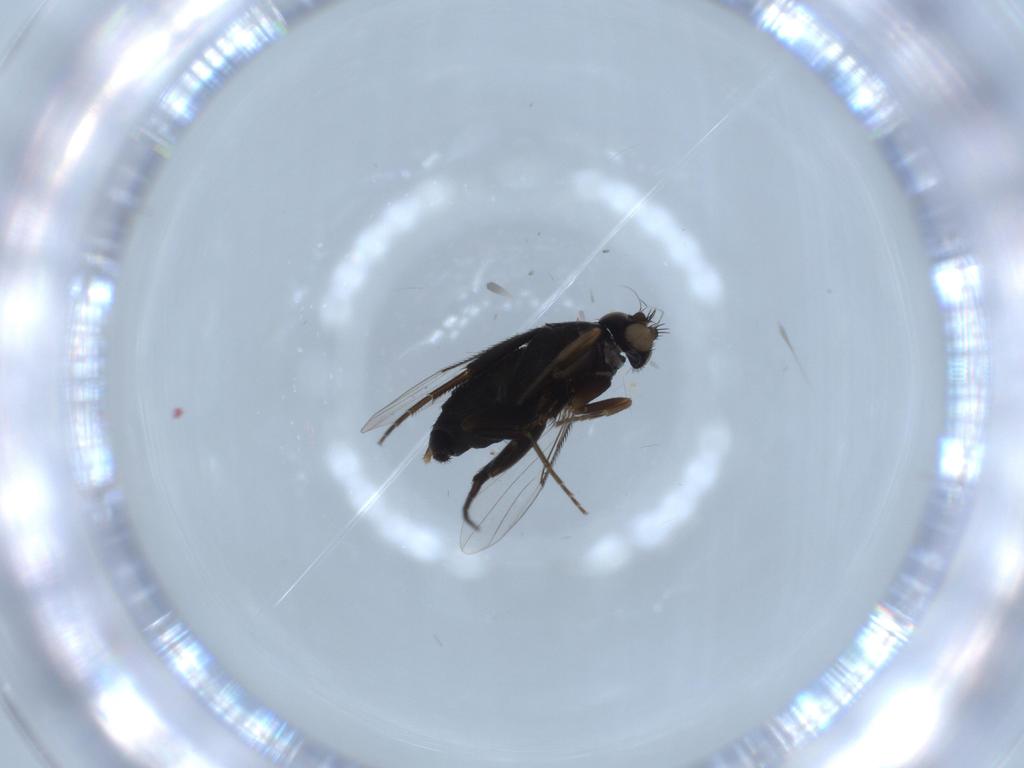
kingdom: Animalia
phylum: Arthropoda
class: Insecta
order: Diptera
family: Phoridae
